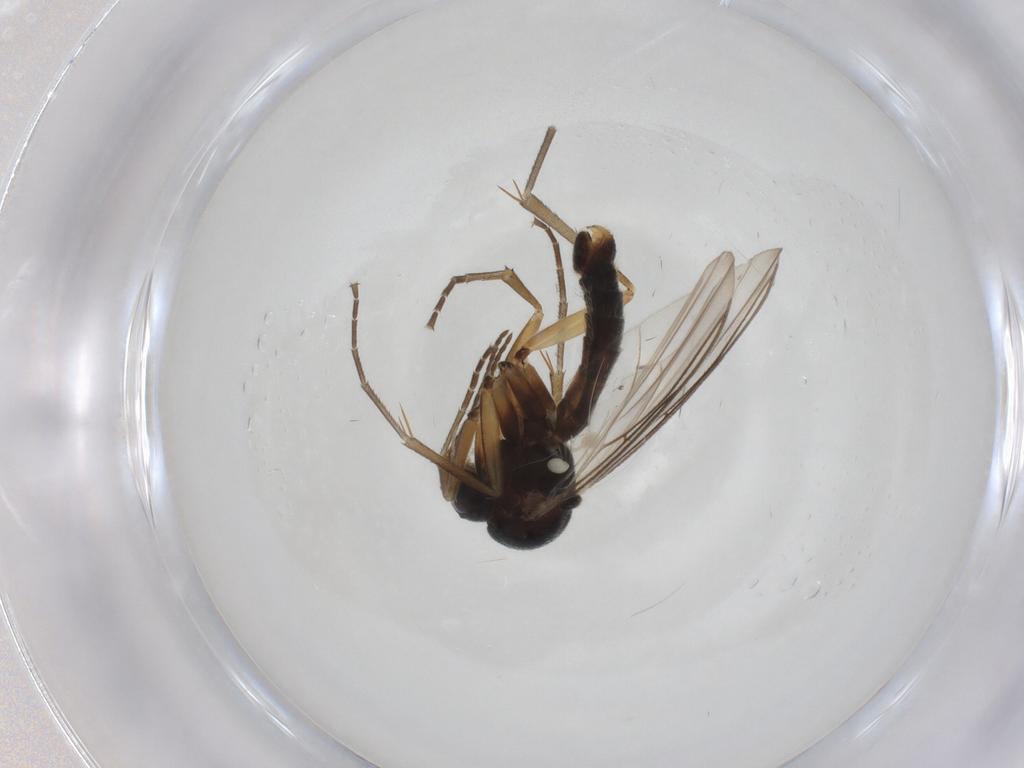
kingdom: Animalia
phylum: Arthropoda
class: Insecta
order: Diptera
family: Mycetophilidae
